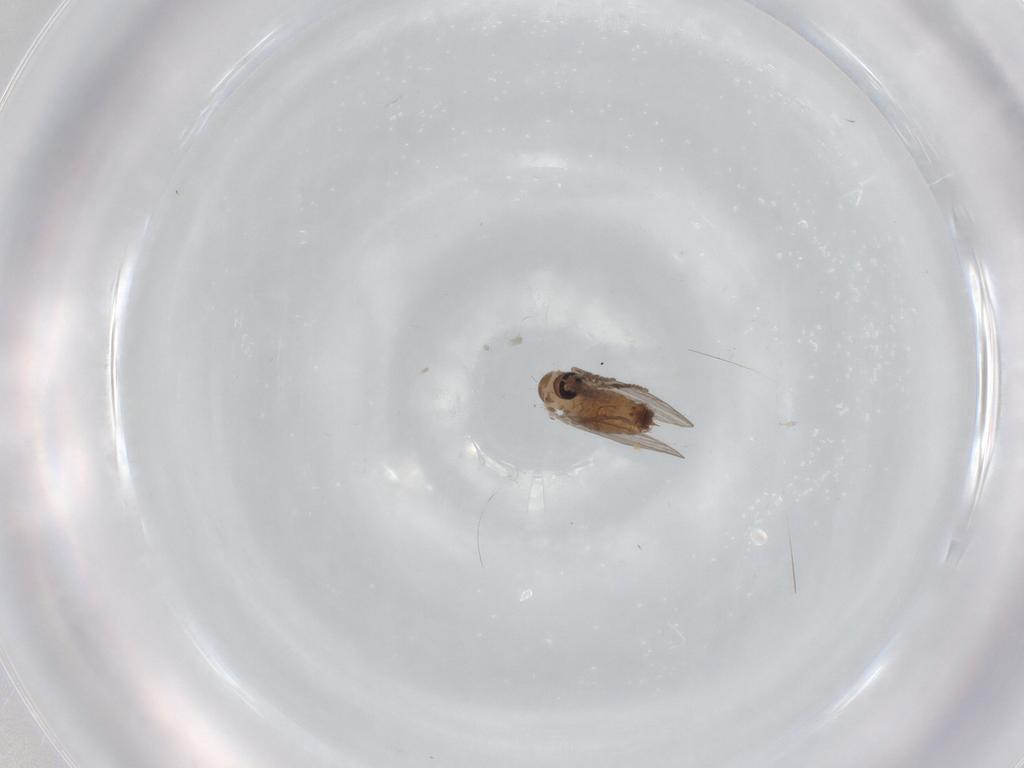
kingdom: Animalia
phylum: Arthropoda
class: Insecta
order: Diptera
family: Psychodidae
